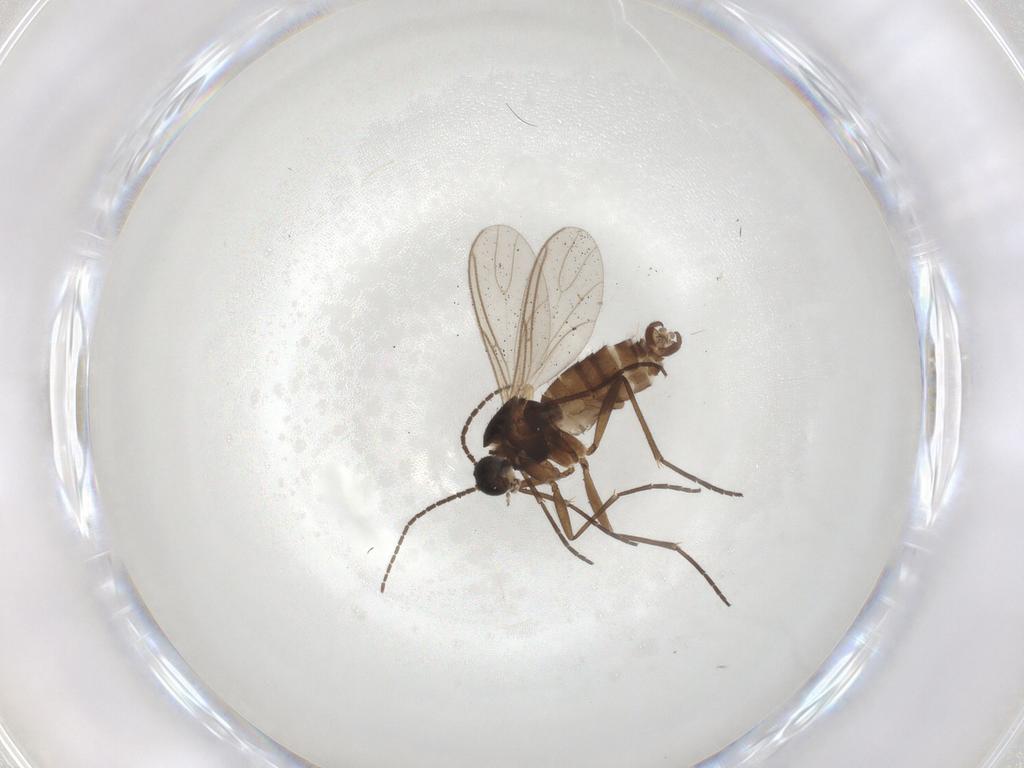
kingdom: Animalia
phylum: Arthropoda
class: Insecta
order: Diptera
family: Sciaridae
